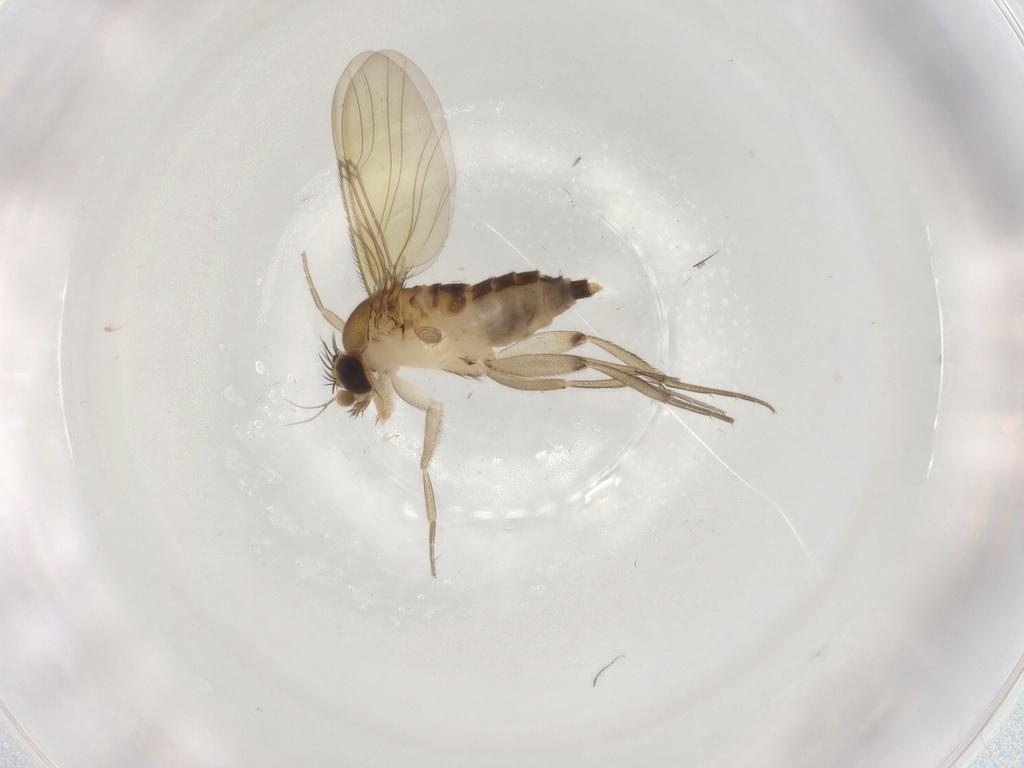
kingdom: Animalia
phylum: Arthropoda
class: Insecta
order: Diptera
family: Phoridae
